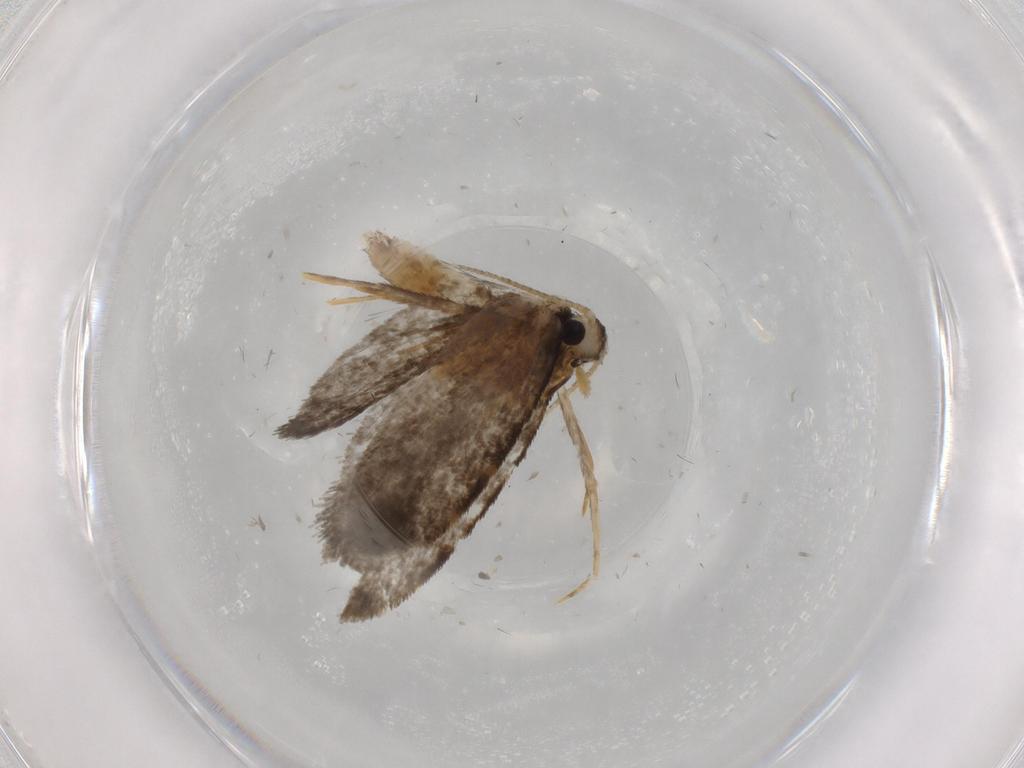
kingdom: Animalia
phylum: Arthropoda
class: Insecta
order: Lepidoptera
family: Psychidae
